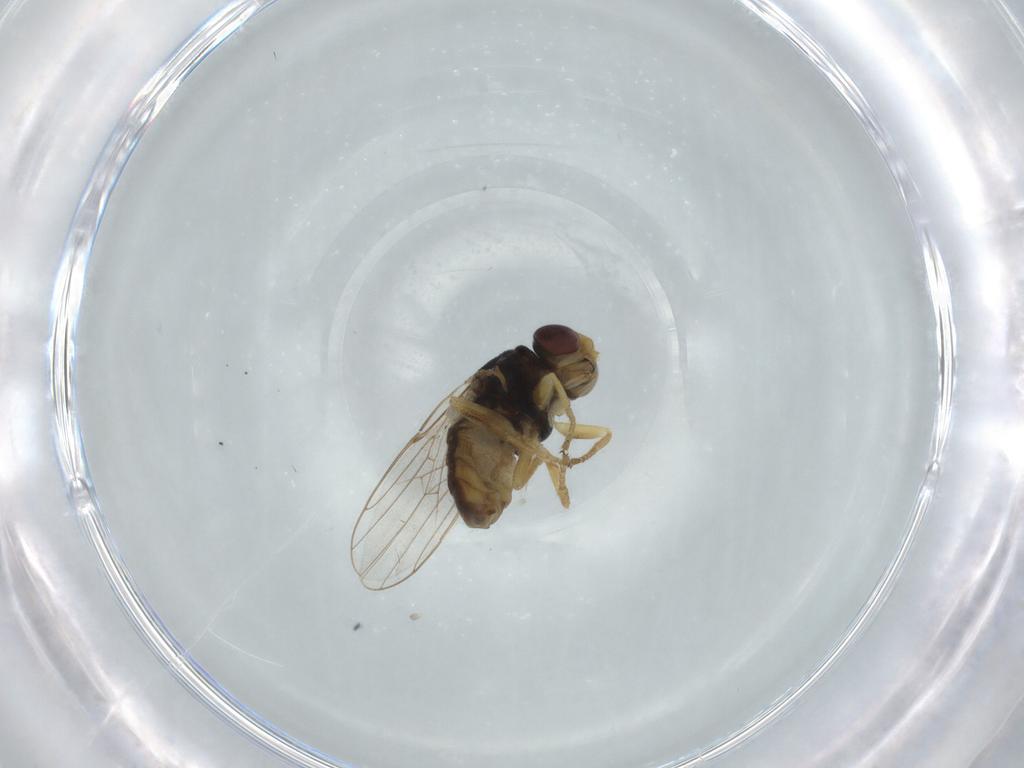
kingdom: Animalia
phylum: Arthropoda
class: Insecta
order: Diptera
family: Chloropidae
